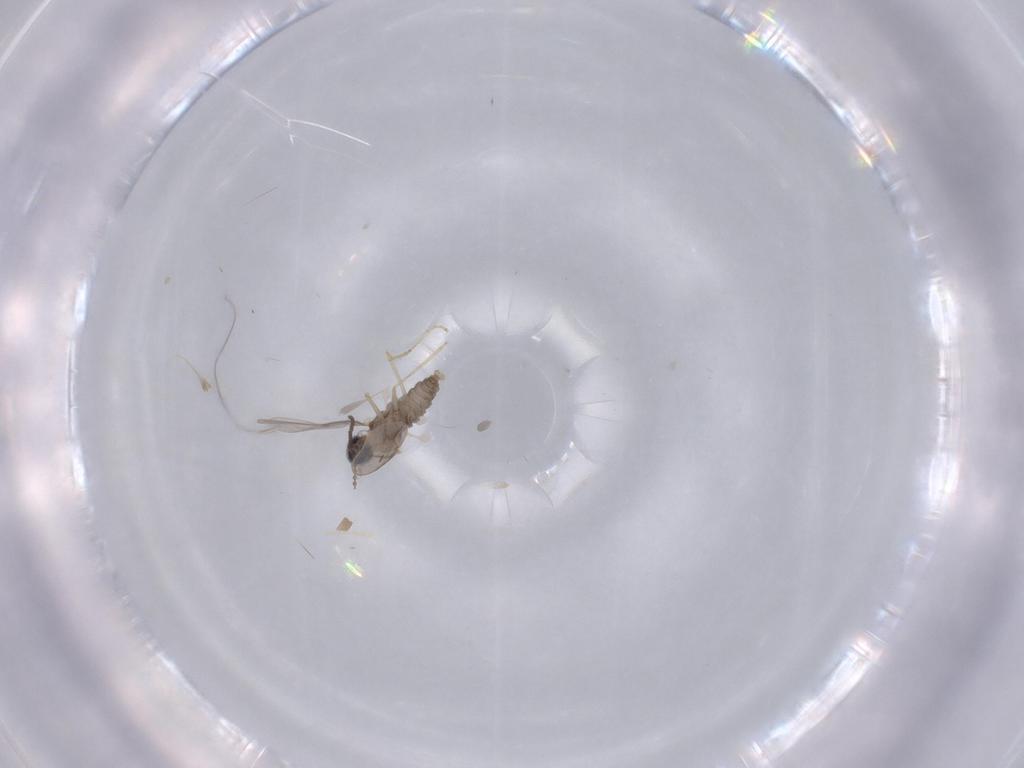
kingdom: Animalia
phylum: Arthropoda
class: Insecta
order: Diptera
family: Cecidomyiidae
